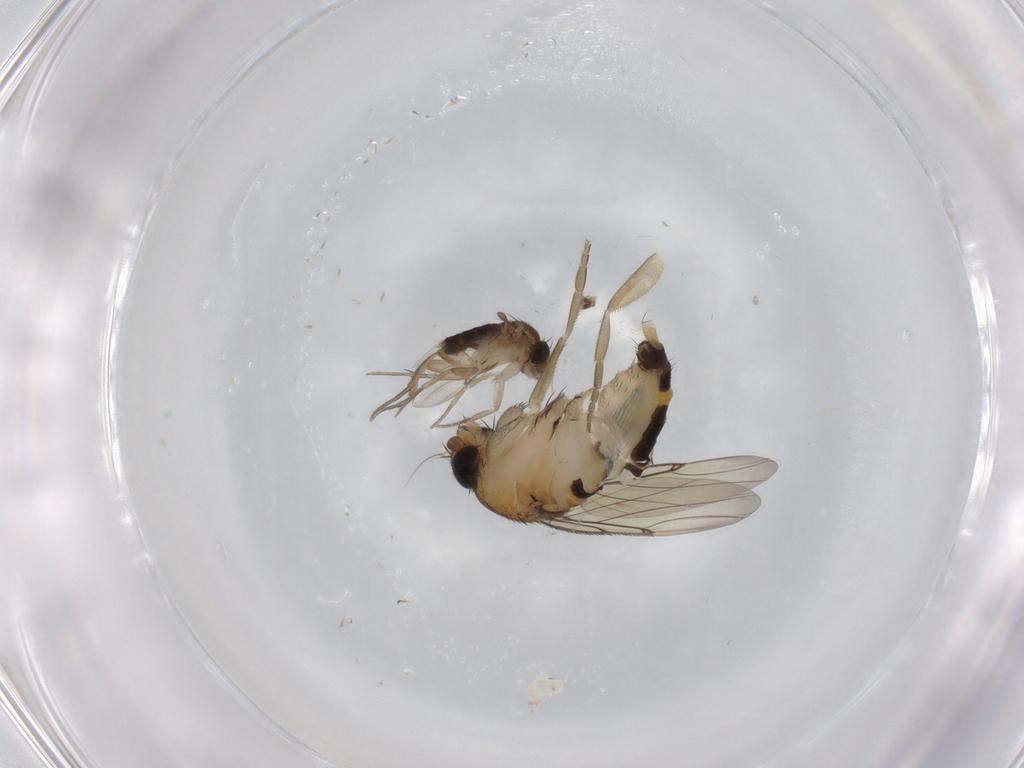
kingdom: Animalia
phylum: Arthropoda
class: Insecta
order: Diptera
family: Phoridae
